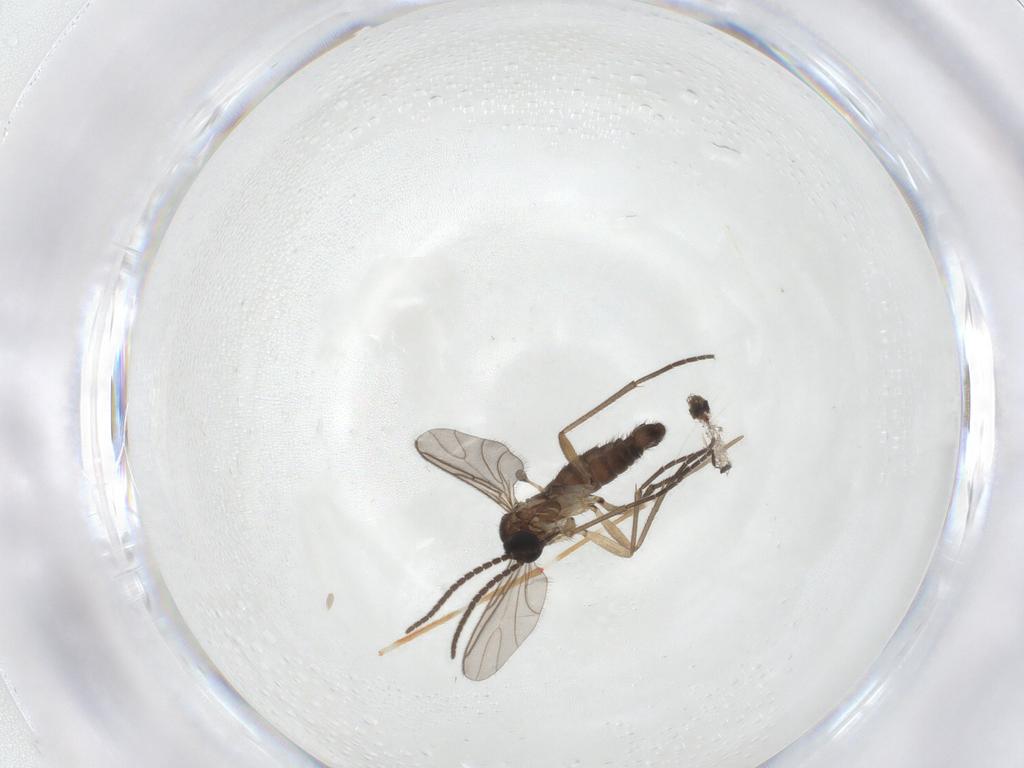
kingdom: Animalia
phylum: Arthropoda
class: Insecta
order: Diptera
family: Sciaridae
